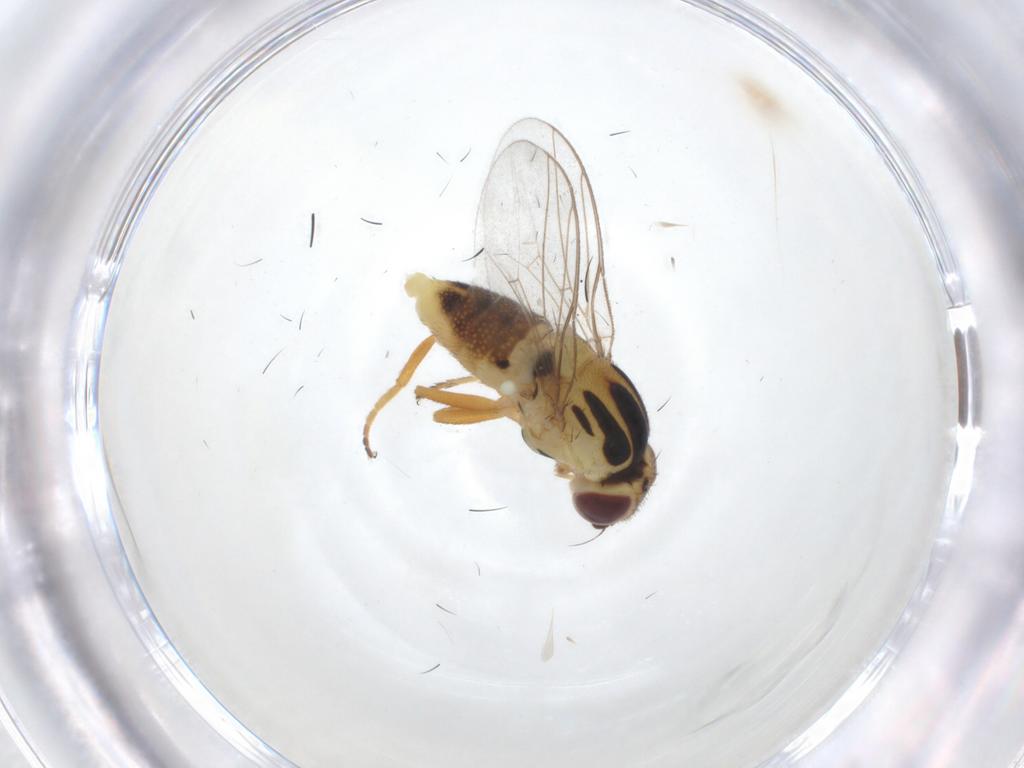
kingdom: Animalia
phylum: Arthropoda
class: Insecta
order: Diptera
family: Chloropidae
